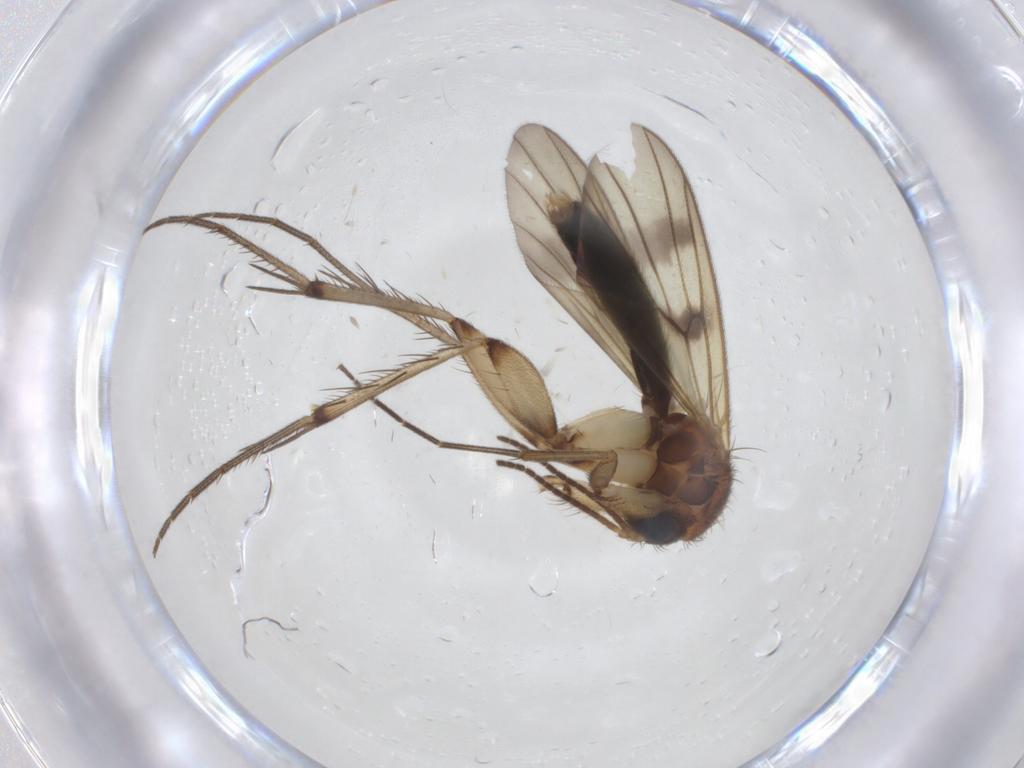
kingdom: Animalia
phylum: Arthropoda
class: Insecta
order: Diptera
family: Mycetophilidae
